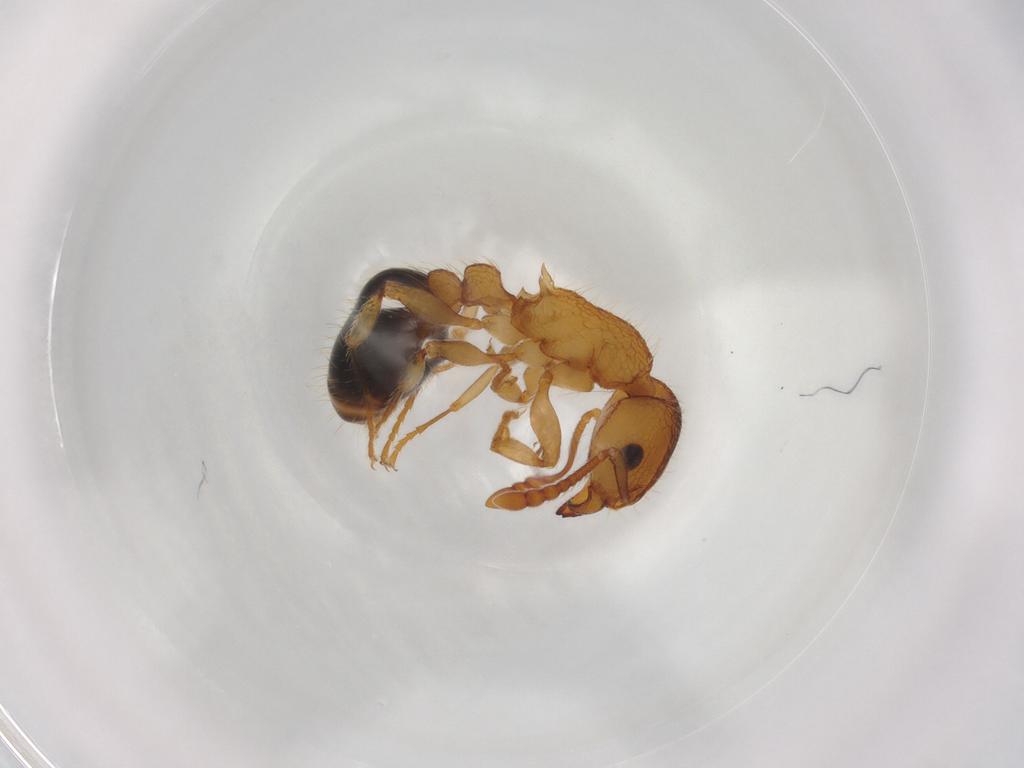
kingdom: Animalia
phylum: Arthropoda
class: Insecta
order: Hymenoptera
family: Formicidae
